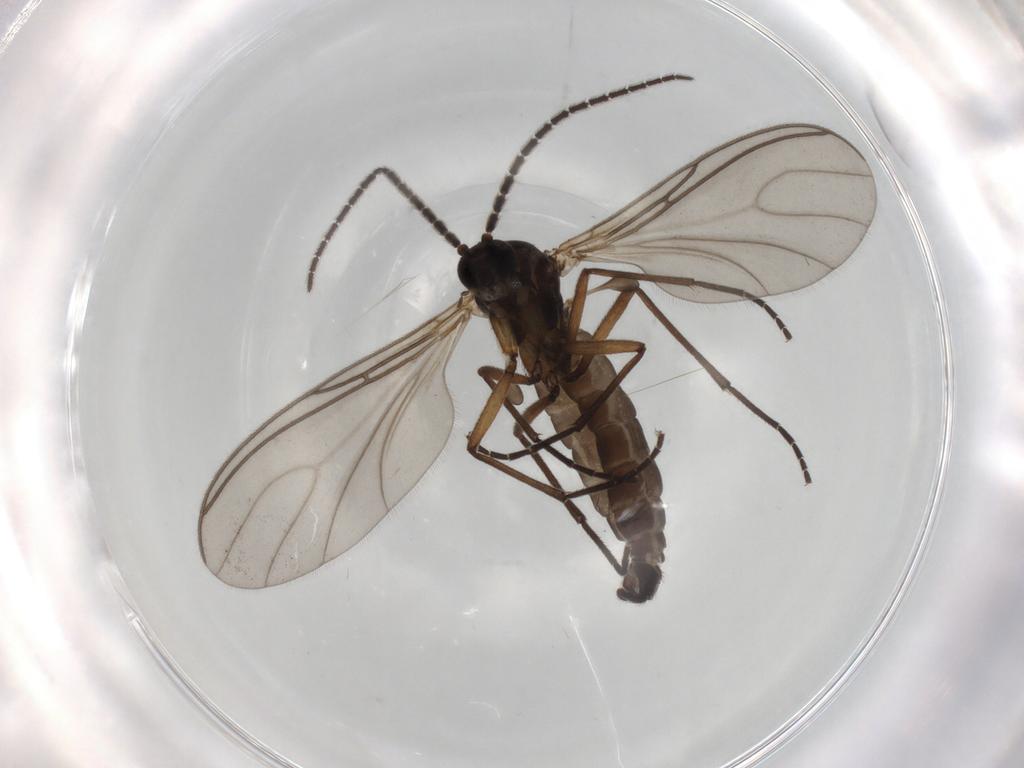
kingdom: Animalia
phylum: Arthropoda
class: Insecta
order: Diptera
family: Sciaridae
